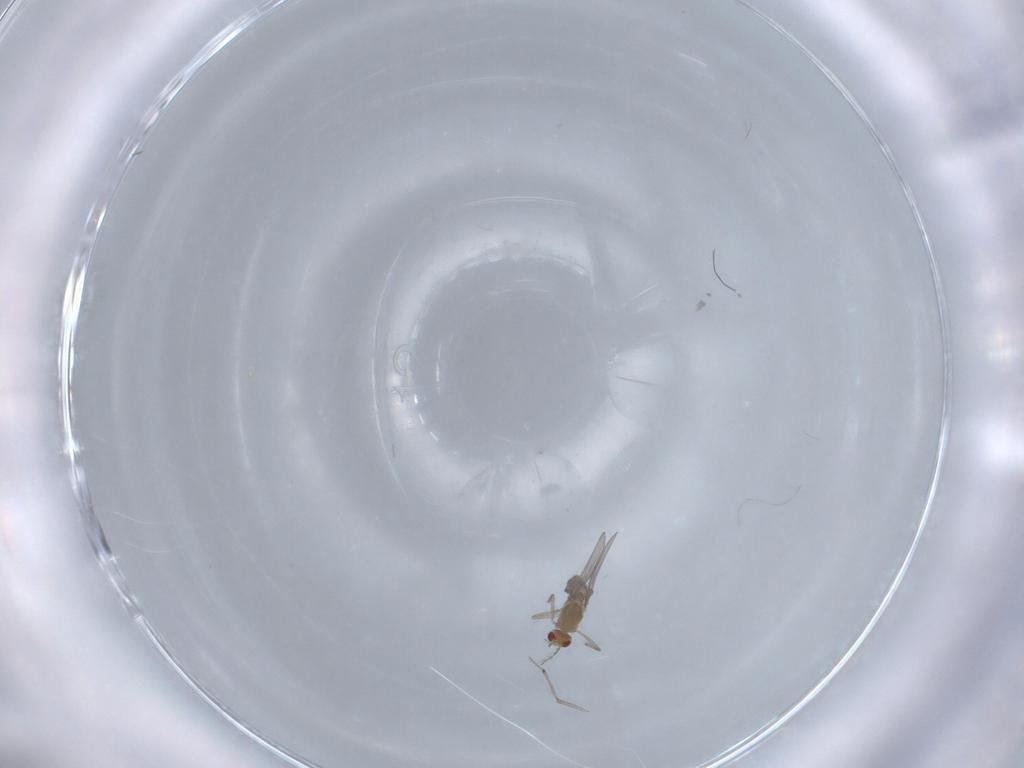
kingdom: Animalia
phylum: Arthropoda
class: Insecta
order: Diptera
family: Chironomidae
